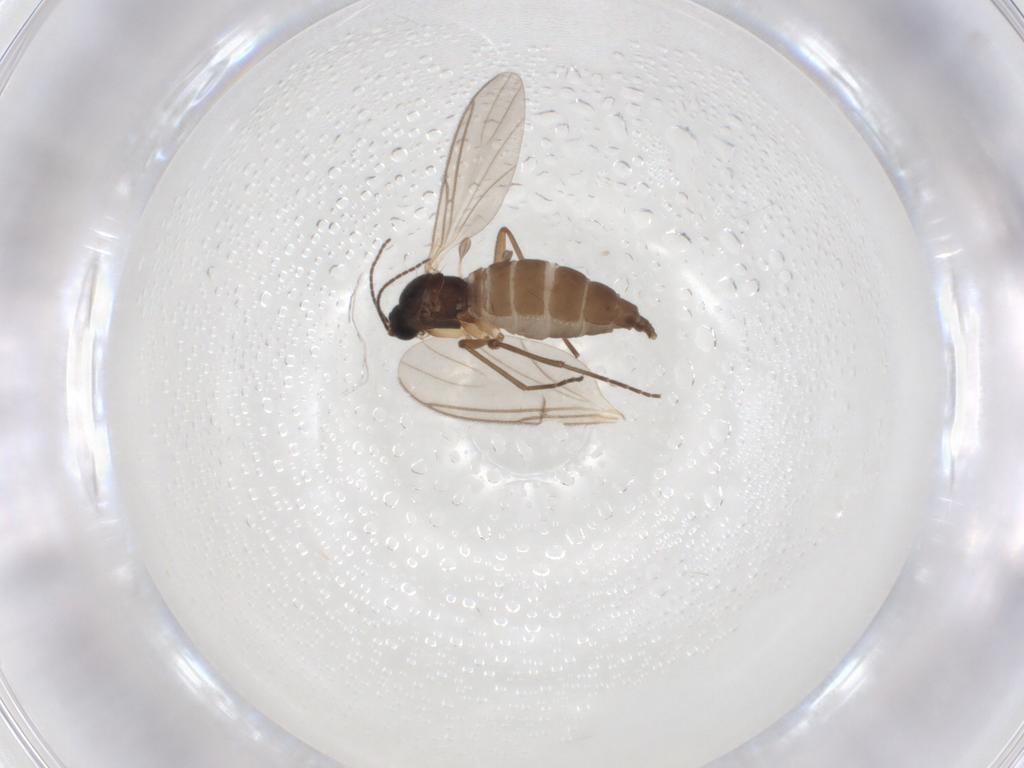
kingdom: Animalia
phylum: Arthropoda
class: Insecta
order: Diptera
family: Sciaridae
